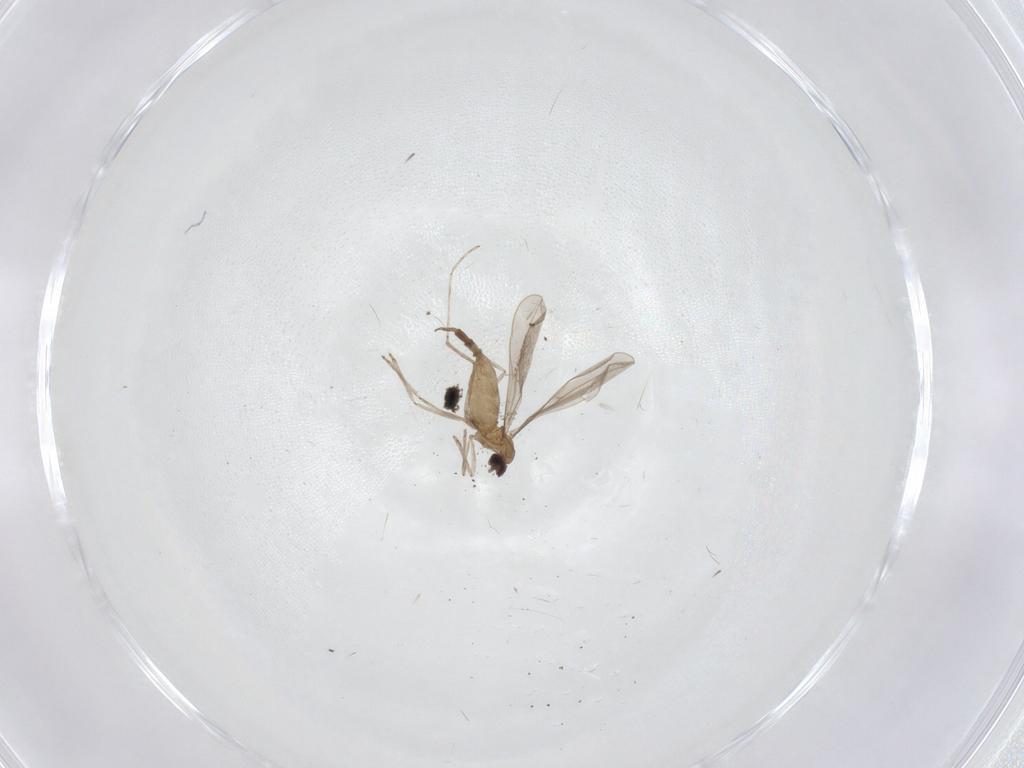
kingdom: Animalia
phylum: Arthropoda
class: Insecta
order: Diptera
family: Cecidomyiidae
